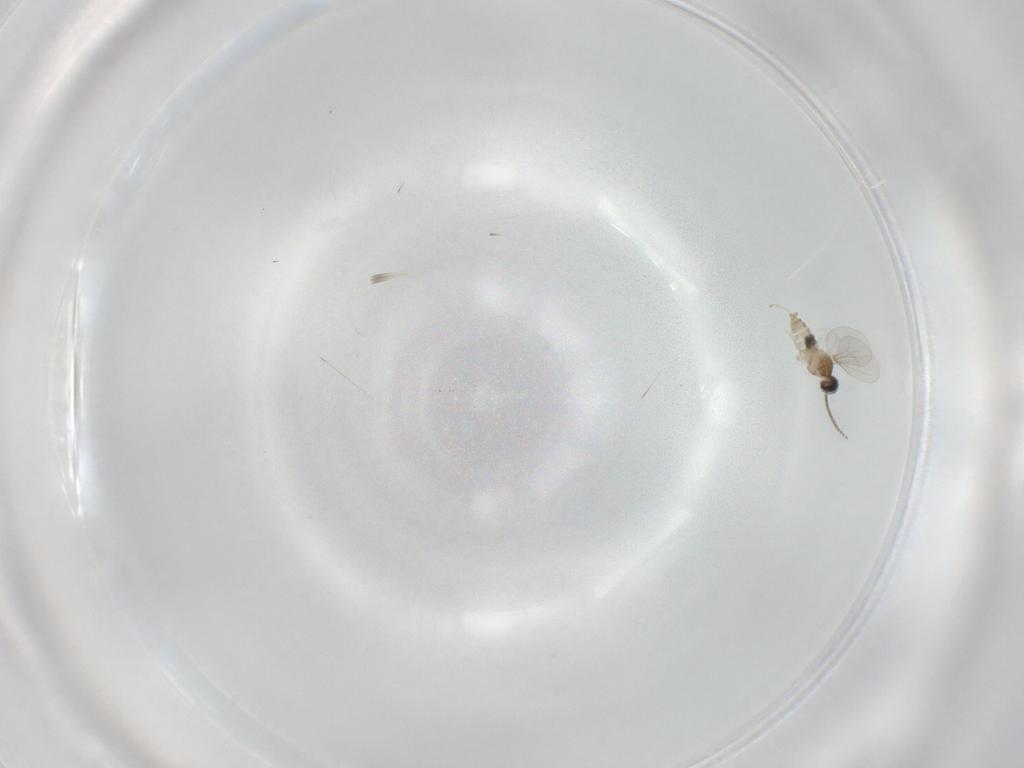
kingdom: Animalia
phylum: Arthropoda
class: Insecta
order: Diptera
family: Cecidomyiidae
